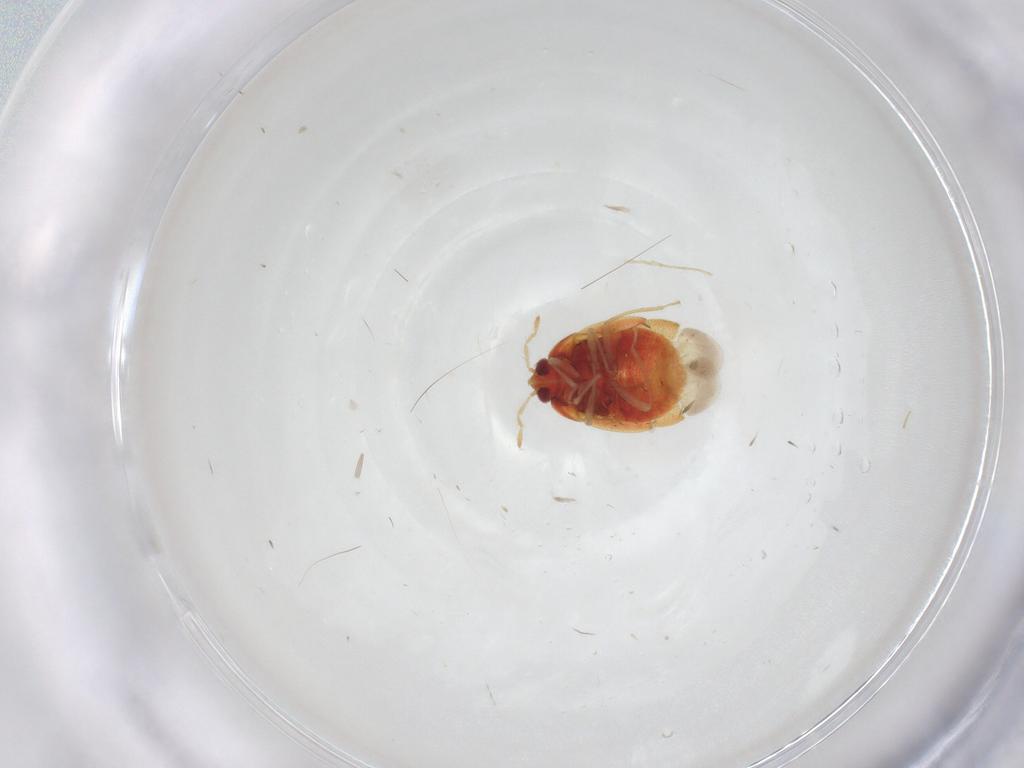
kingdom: Animalia
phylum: Arthropoda
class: Insecta
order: Hemiptera
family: Anthocoridae
